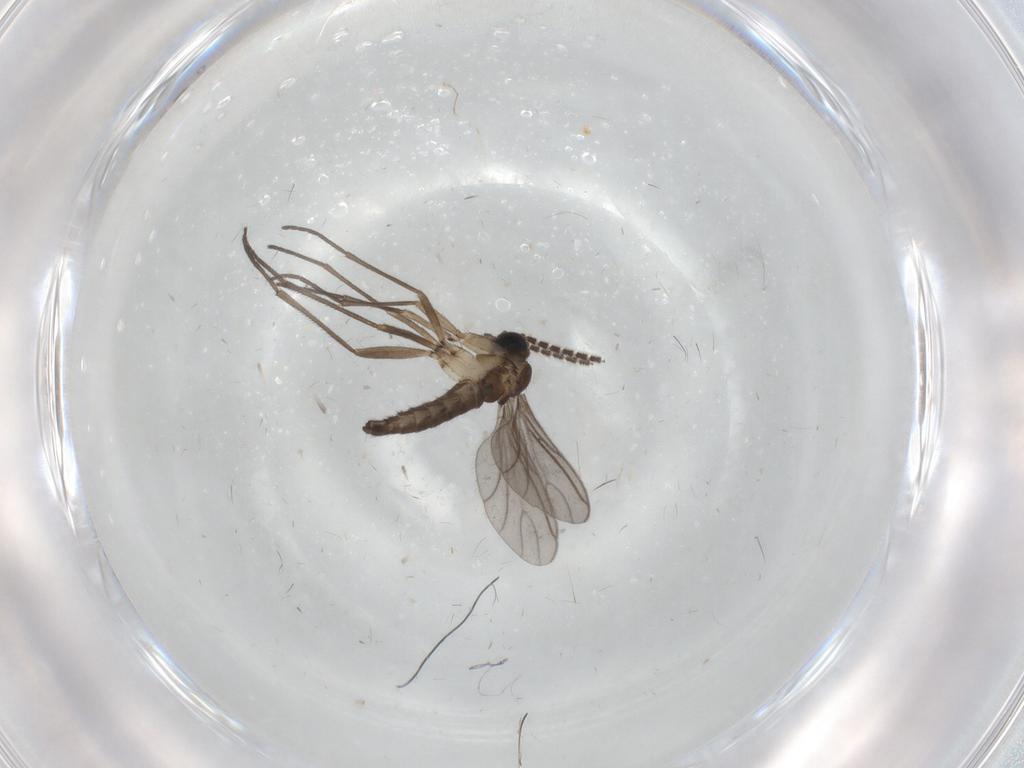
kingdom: Animalia
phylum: Arthropoda
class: Insecta
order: Diptera
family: Sciaridae
